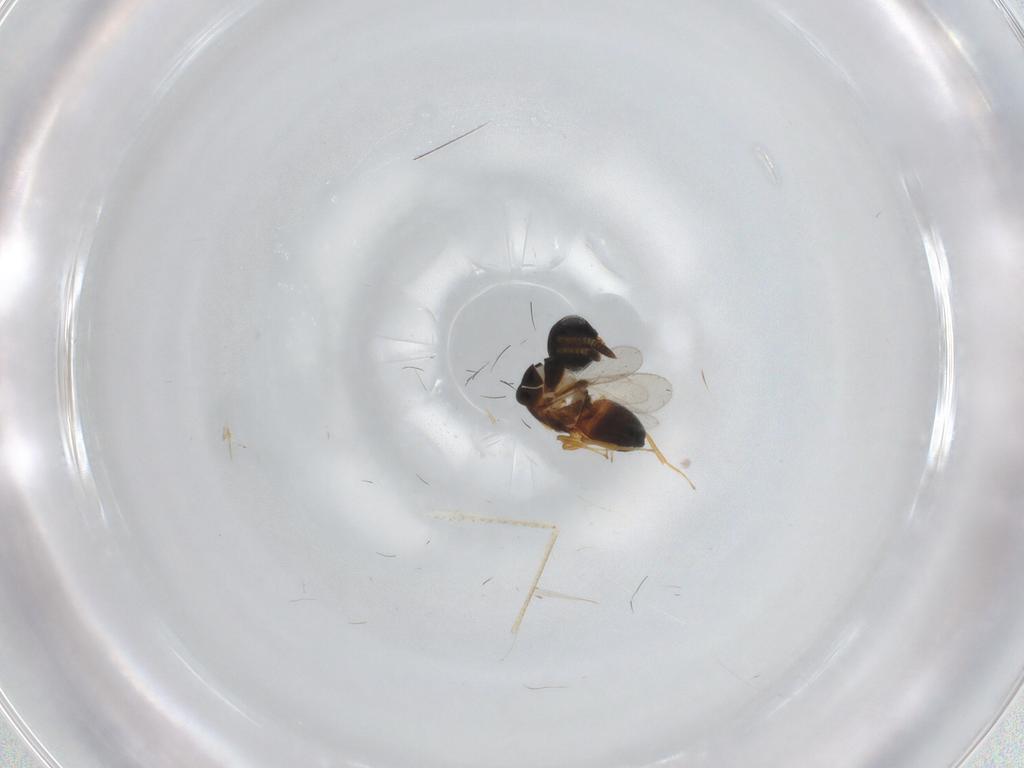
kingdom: Animalia
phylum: Arthropoda
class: Insecta
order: Hymenoptera
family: Scelionidae
